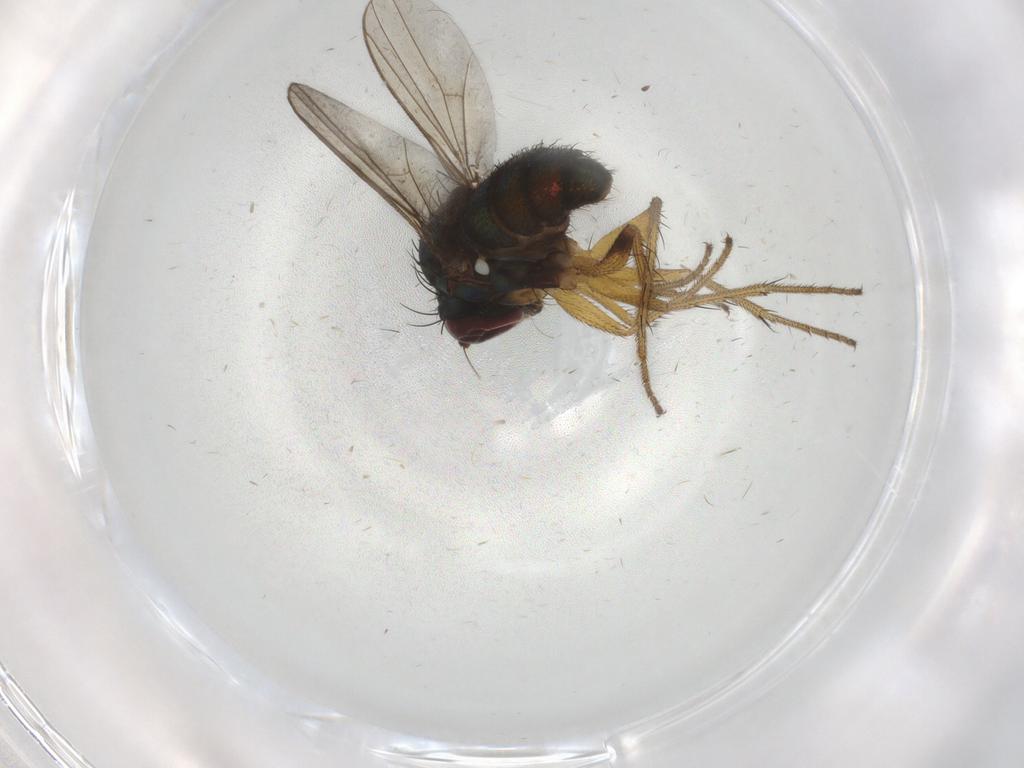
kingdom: Animalia
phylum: Arthropoda
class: Insecta
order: Diptera
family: Dolichopodidae
